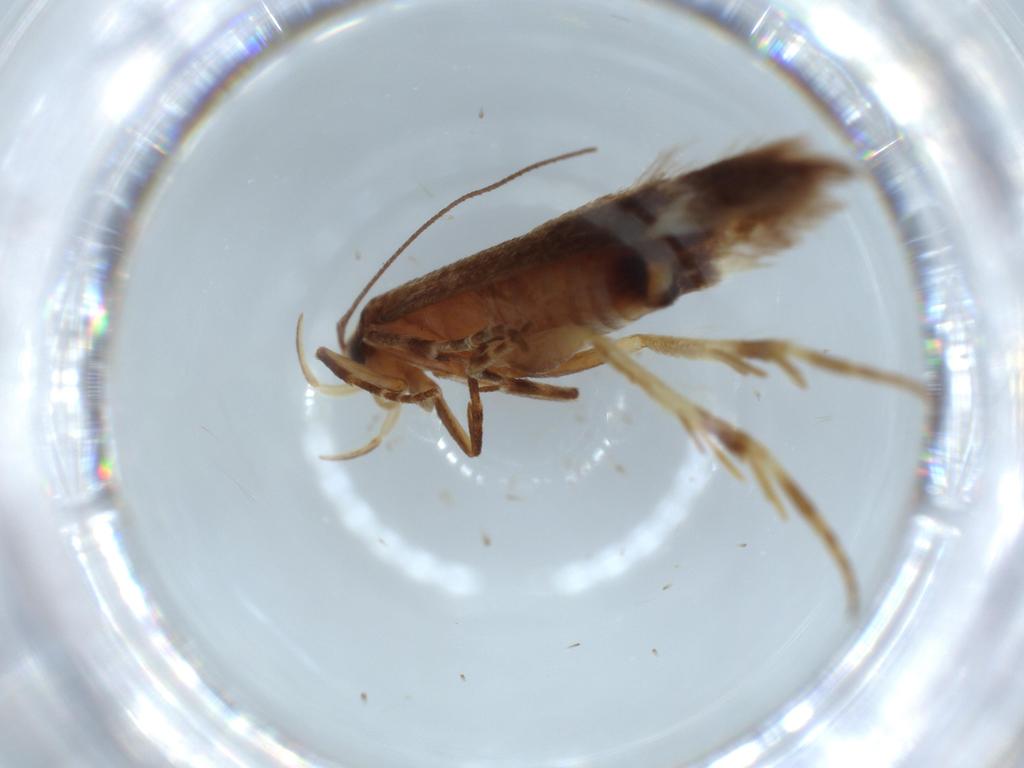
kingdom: Animalia
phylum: Arthropoda
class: Insecta
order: Lepidoptera
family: Gelechiidae
